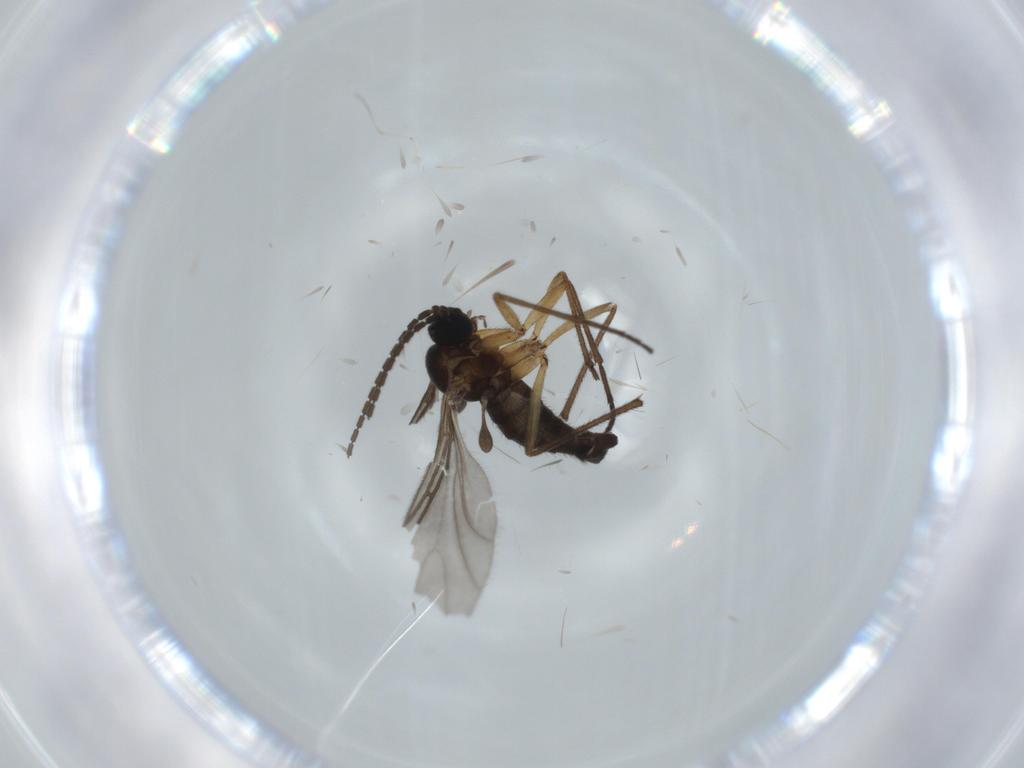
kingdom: Animalia
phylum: Arthropoda
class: Insecta
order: Diptera
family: Sciaridae
